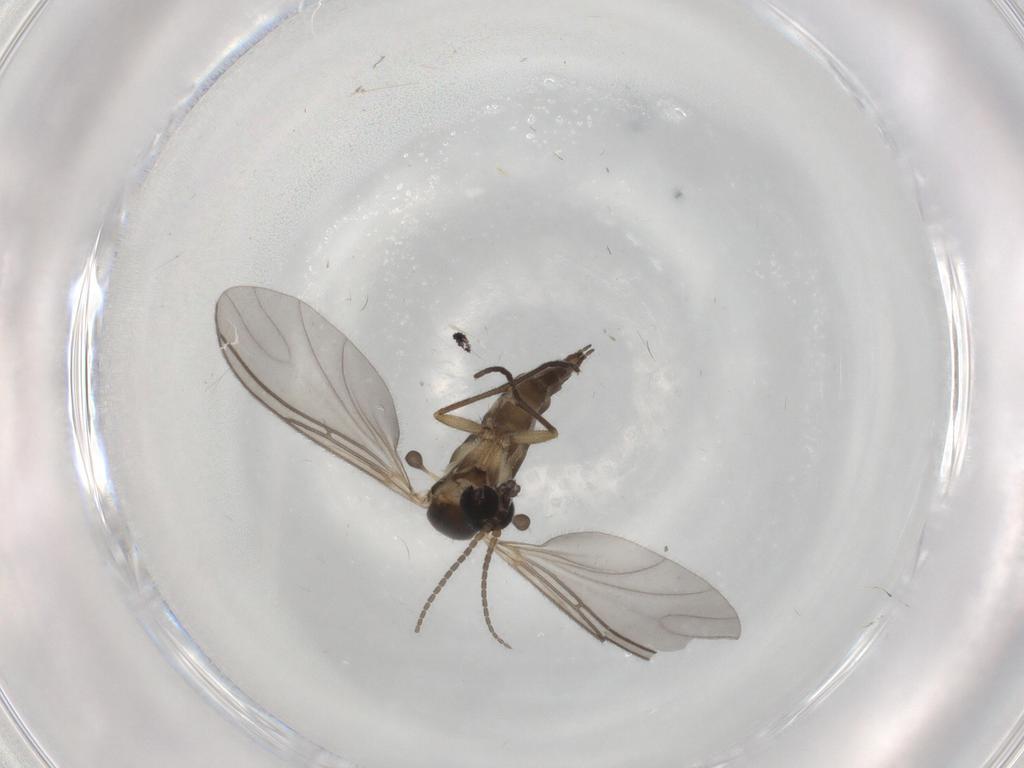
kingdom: Animalia
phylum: Arthropoda
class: Insecta
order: Diptera
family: Sciaridae
